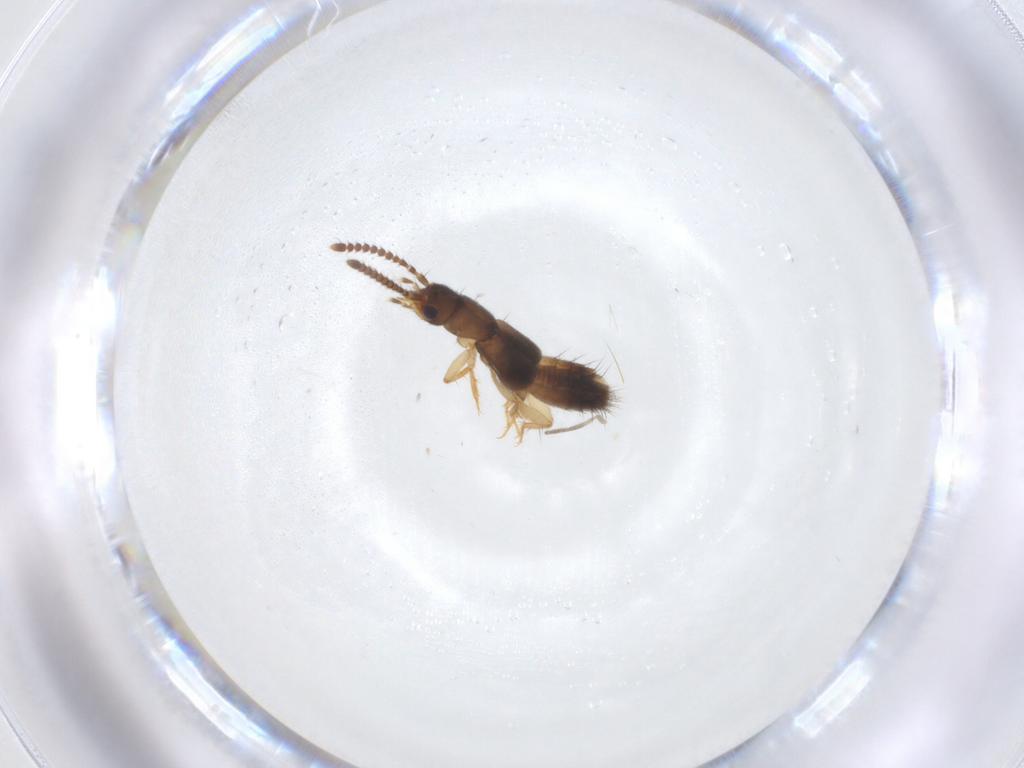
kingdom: Animalia
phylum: Arthropoda
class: Insecta
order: Coleoptera
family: Staphylinidae
